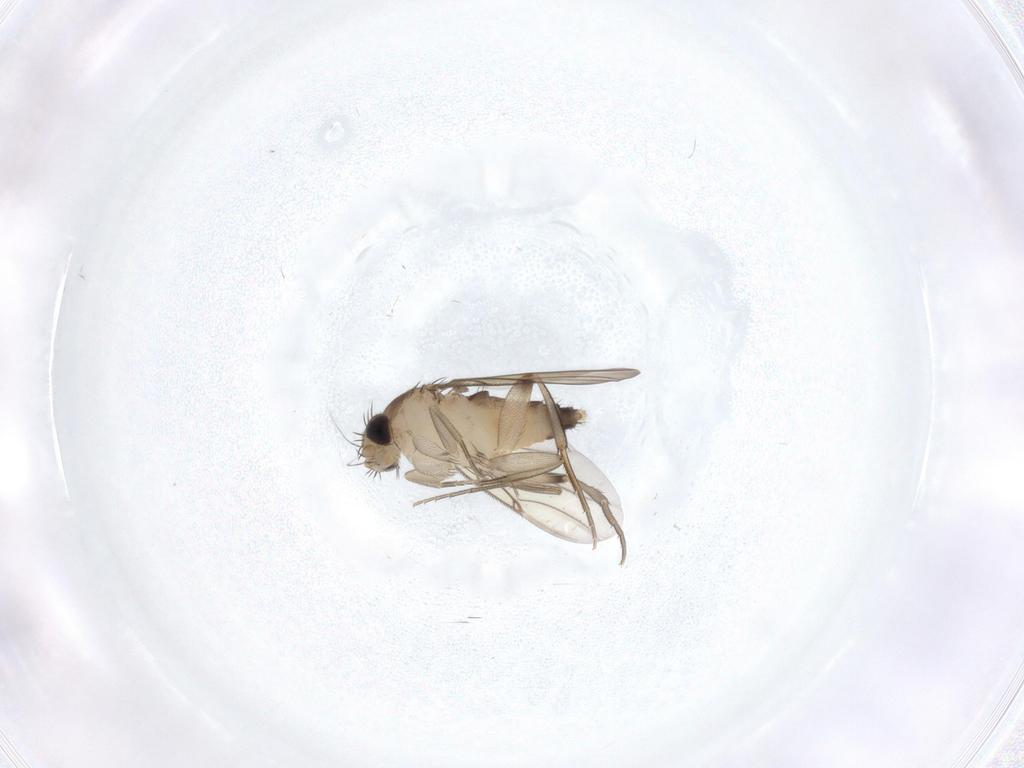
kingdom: Animalia
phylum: Arthropoda
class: Insecta
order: Diptera
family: Phoridae
